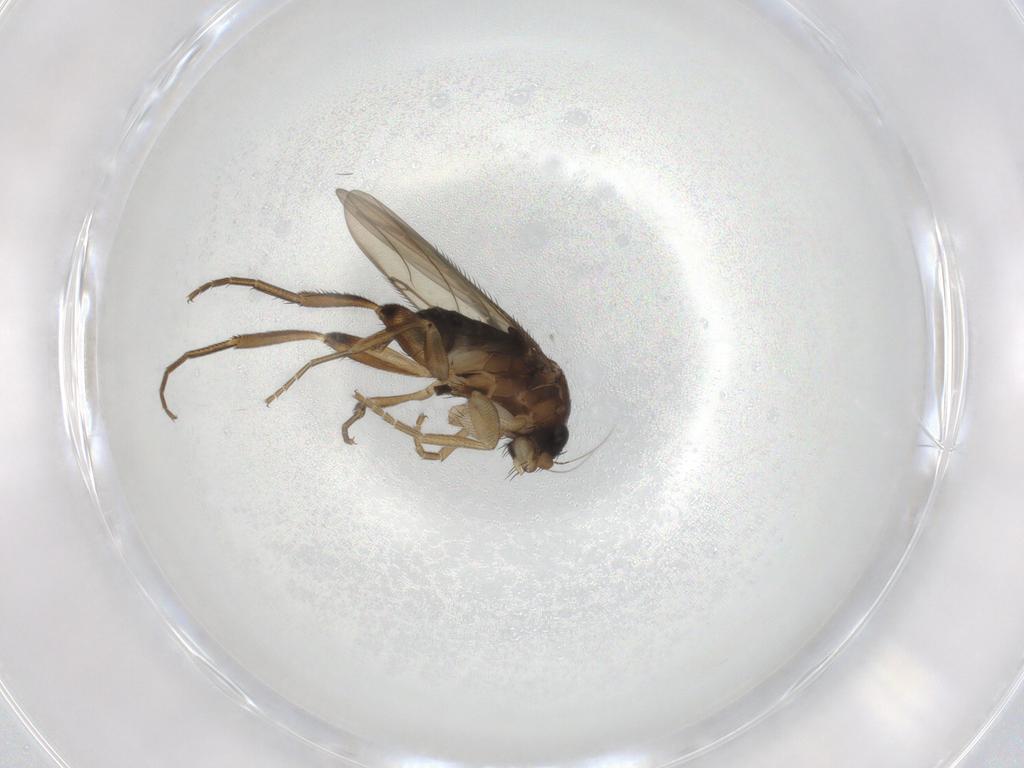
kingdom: Animalia
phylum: Arthropoda
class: Insecta
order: Diptera
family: Phoridae
